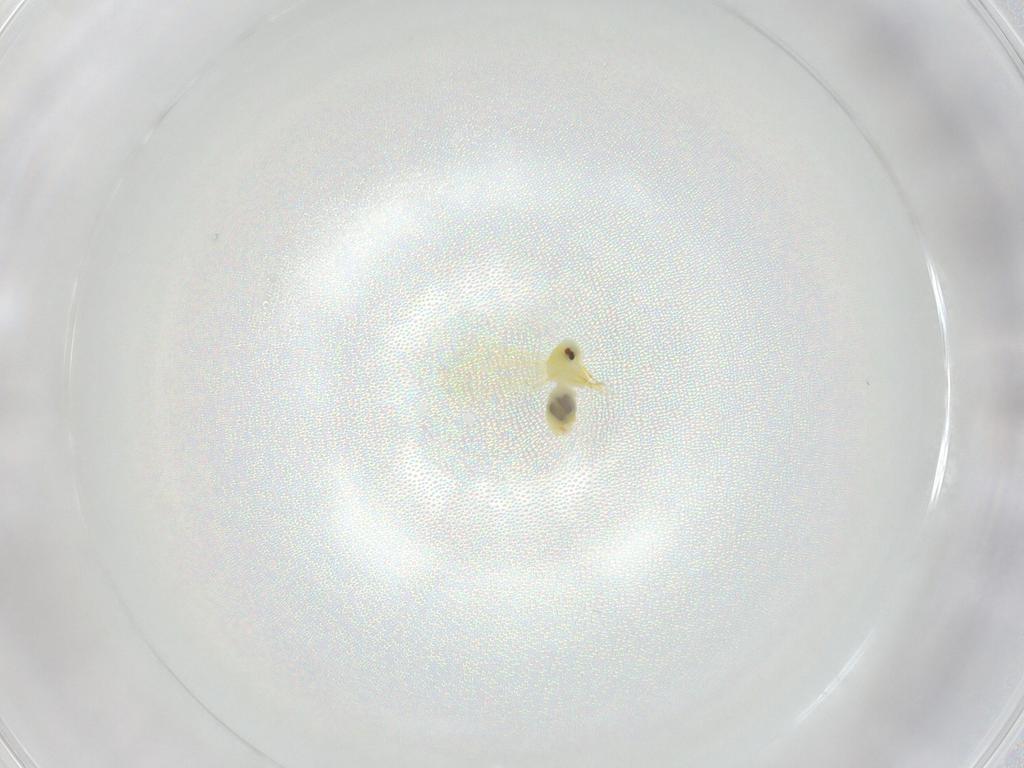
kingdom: Animalia
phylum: Arthropoda
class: Insecta
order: Hemiptera
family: Aleyrodidae
